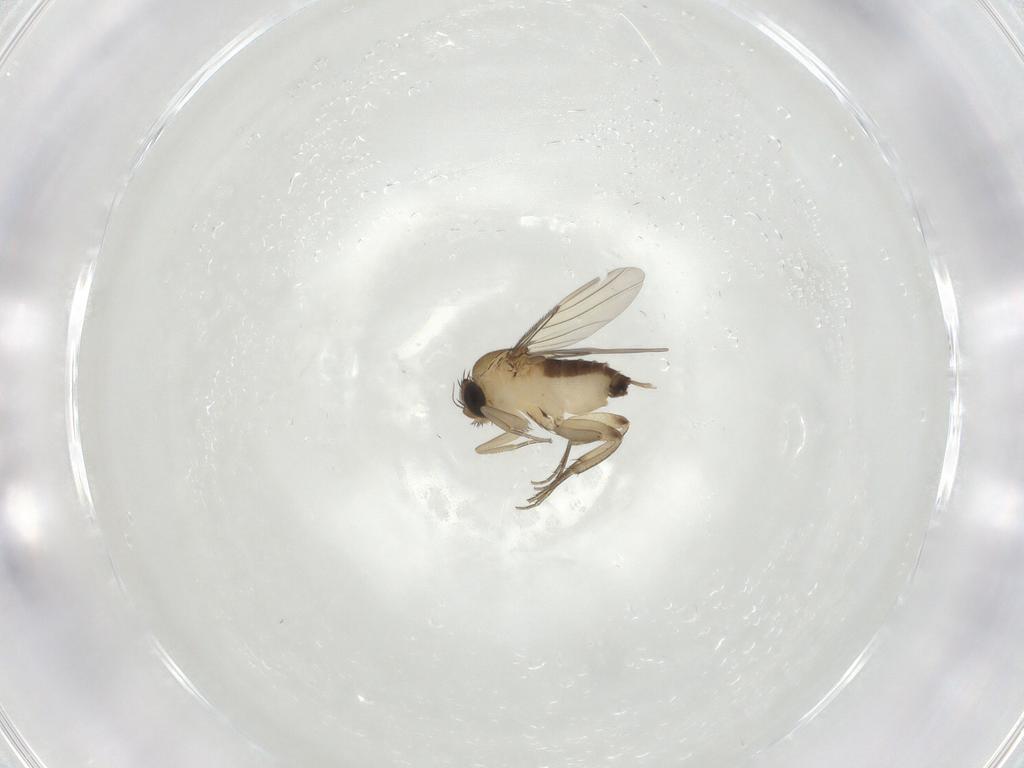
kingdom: Animalia
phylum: Arthropoda
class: Insecta
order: Diptera
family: Phoridae
